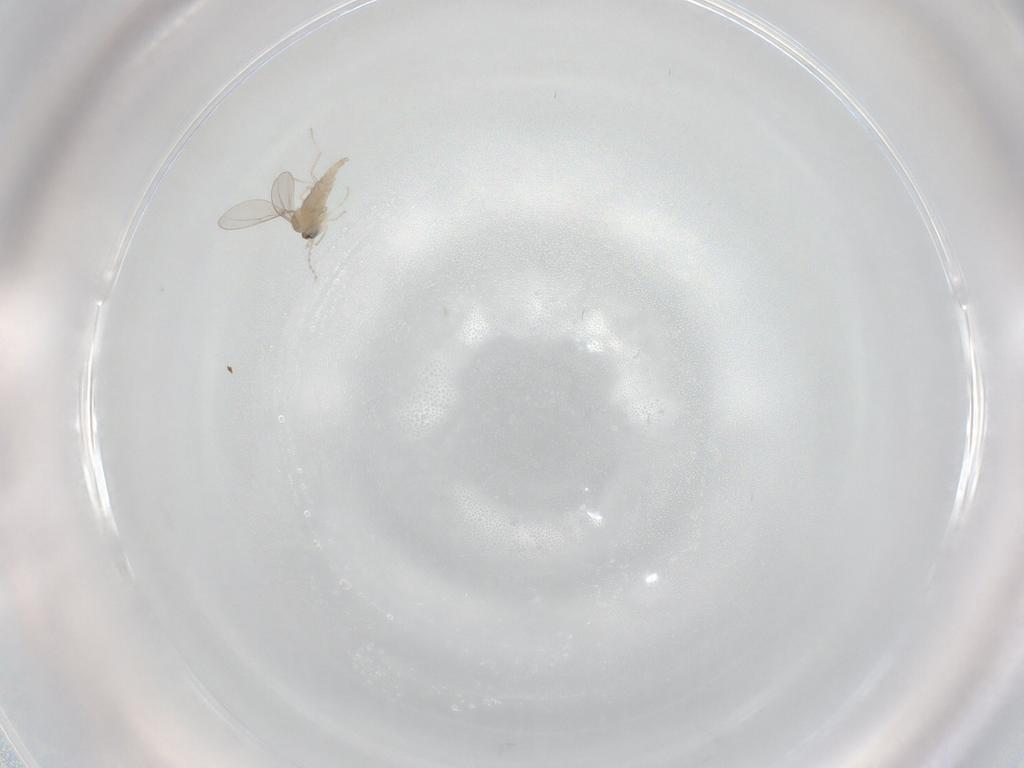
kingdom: Animalia
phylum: Arthropoda
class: Insecta
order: Diptera
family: Cecidomyiidae
